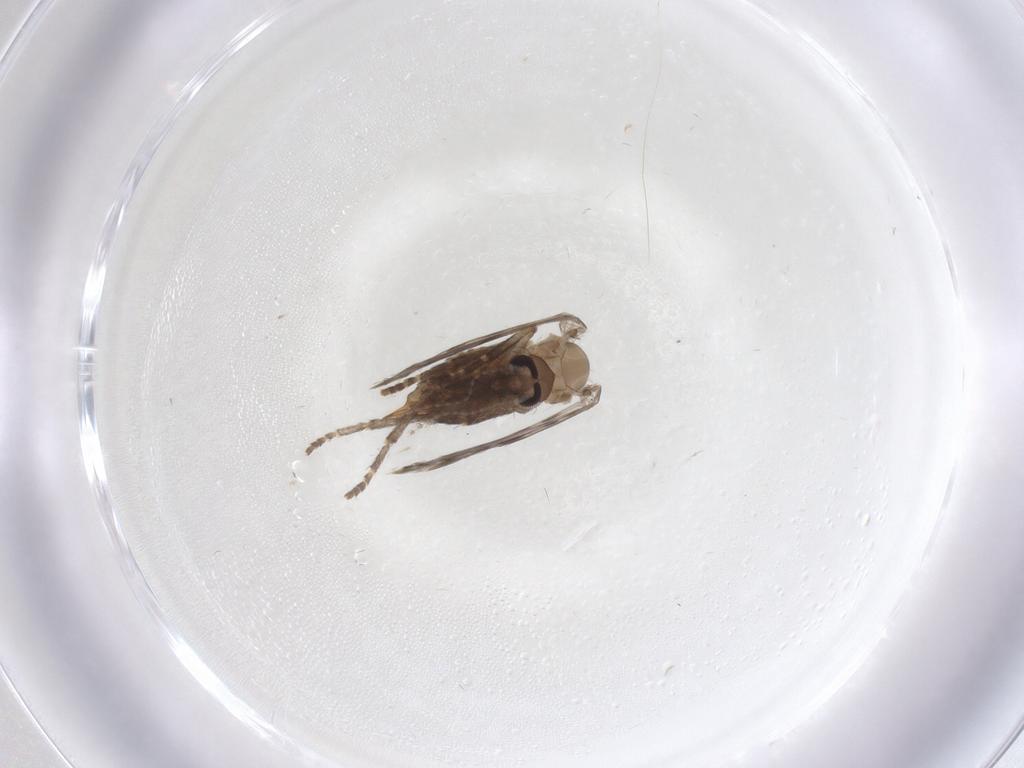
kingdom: Animalia
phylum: Arthropoda
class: Insecta
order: Diptera
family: Psychodidae
